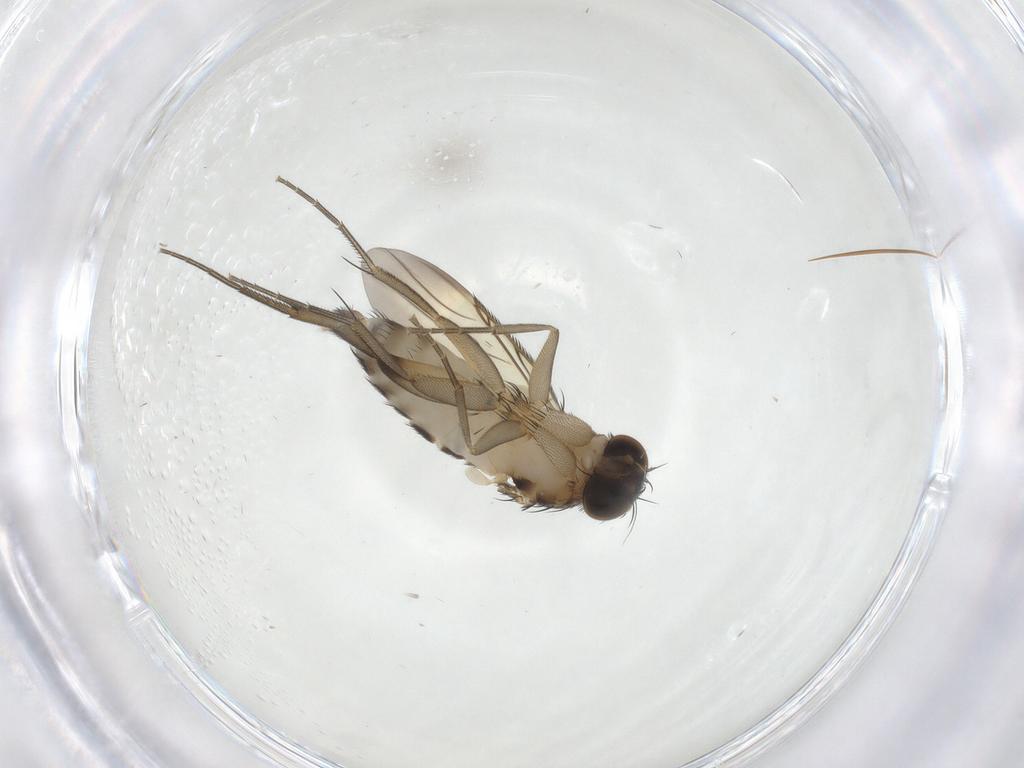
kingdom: Animalia
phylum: Arthropoda
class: Insecta
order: Diptera
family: Phoridae
